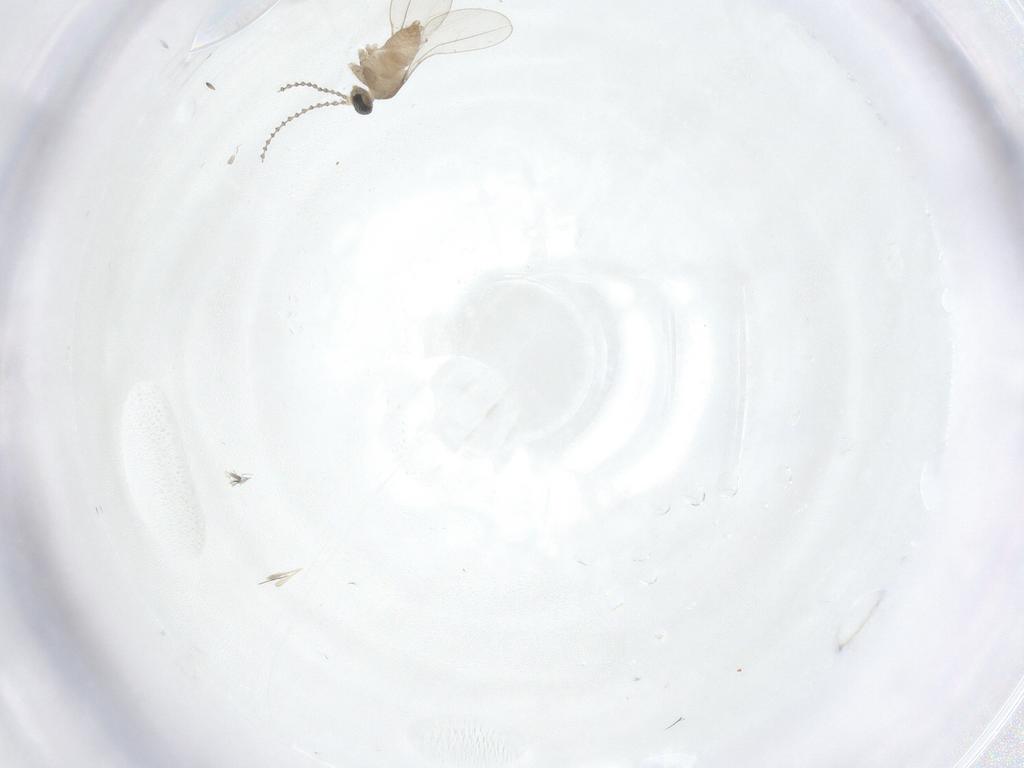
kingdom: Animalia
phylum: Arthropoda
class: Insecta
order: Diptera
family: Cecidomyiidae
